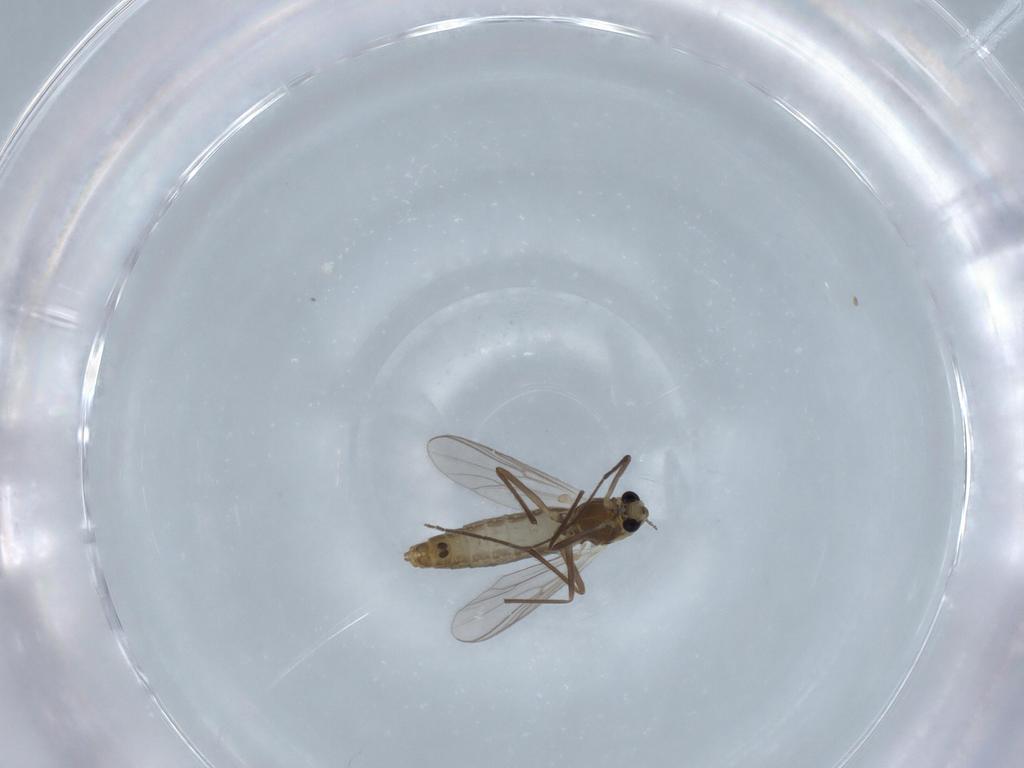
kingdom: Animalia
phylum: Arthropoda
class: Insecta
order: Diptera
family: Chironomidae
